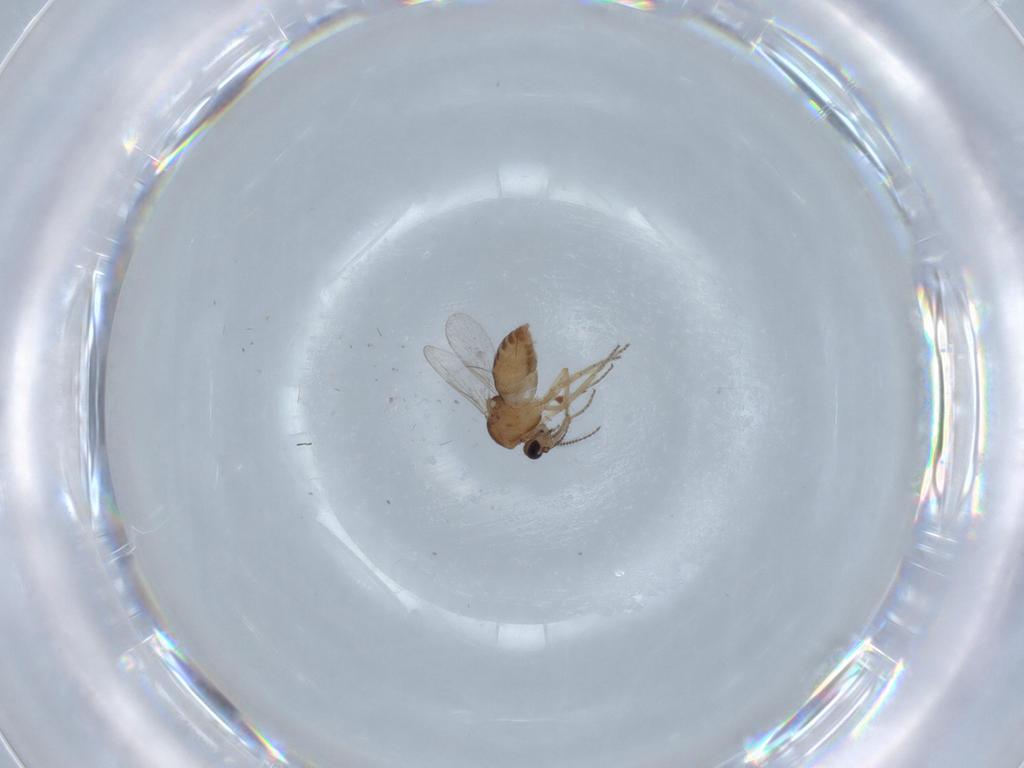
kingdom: Animalia
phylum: Arthropoda
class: Insecta
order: Diptera
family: Ceratopogonidae
